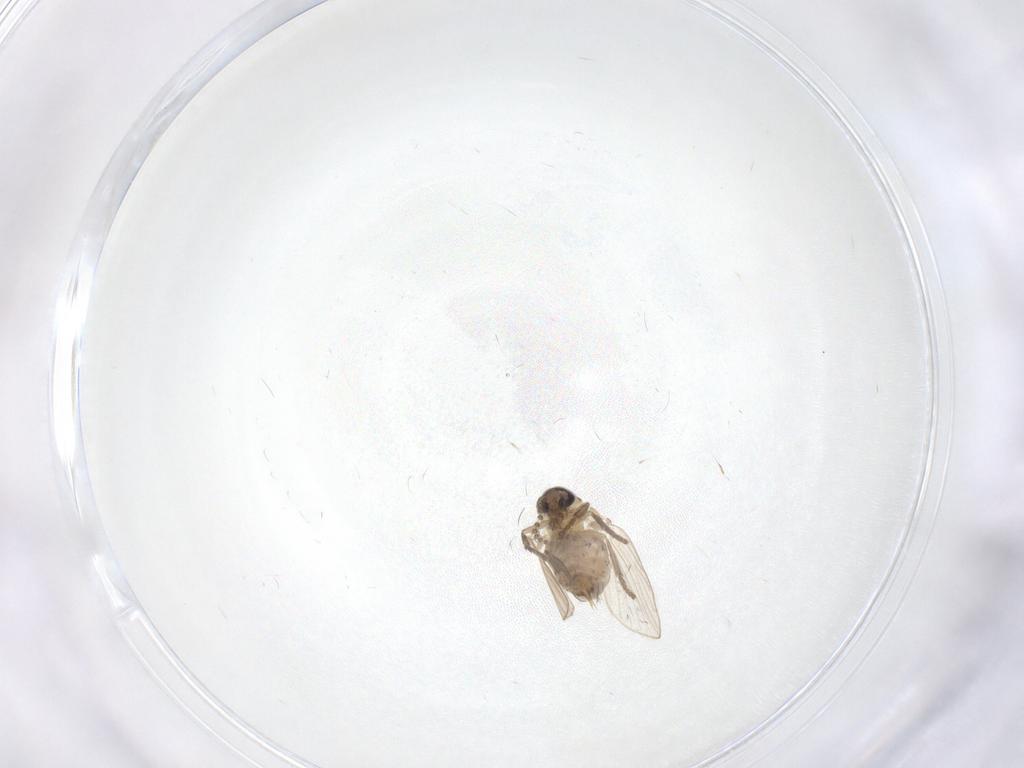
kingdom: Animalia
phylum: Arthropoda
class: Insecta
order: Diptera
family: Psychodidae
